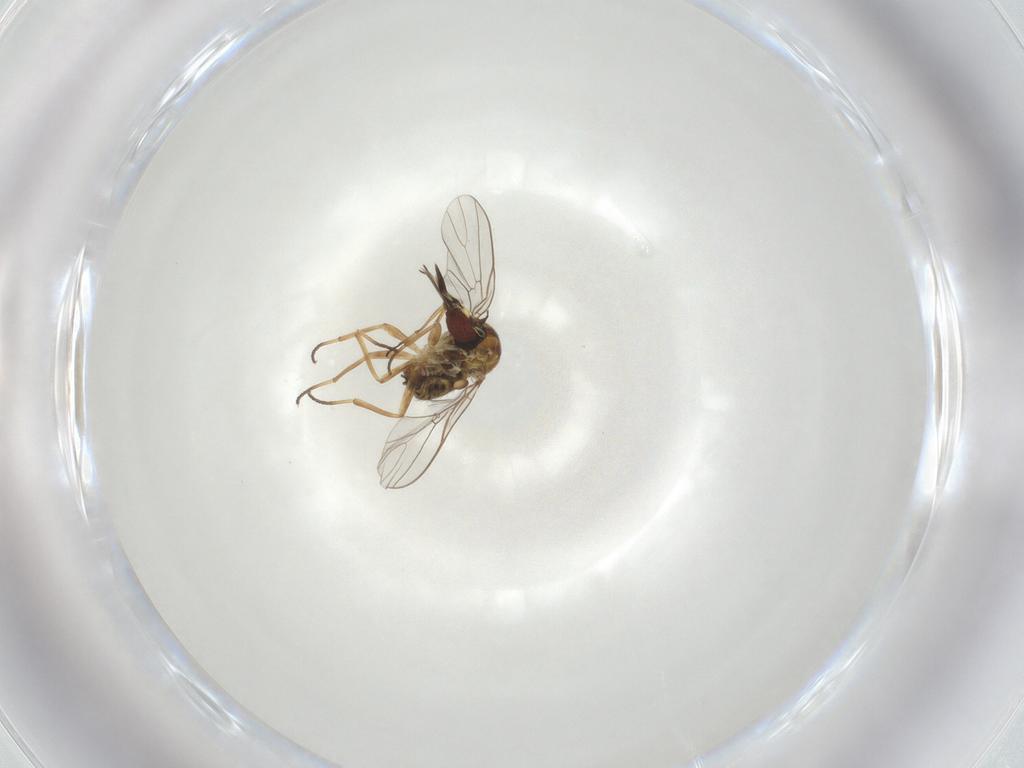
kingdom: Animalia
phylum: Arthropoda
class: Insecta
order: Diptera
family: Bombyliidae
